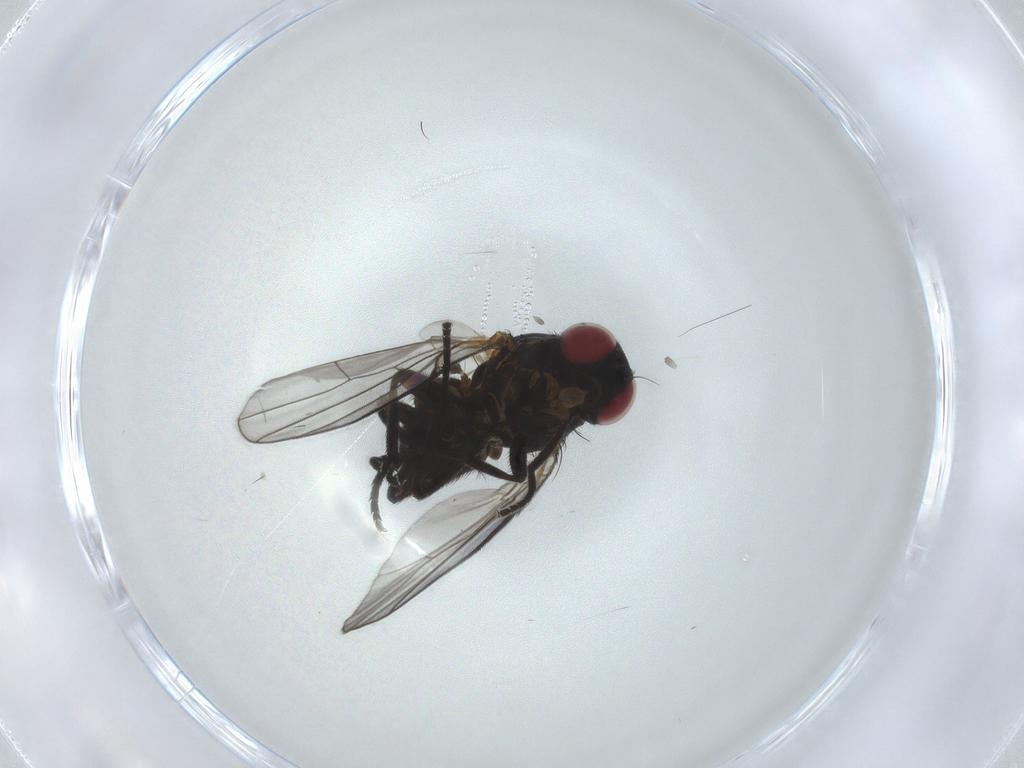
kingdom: Animalia
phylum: Arthropoda
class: Insecta
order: Diptera
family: Agromyzidae
